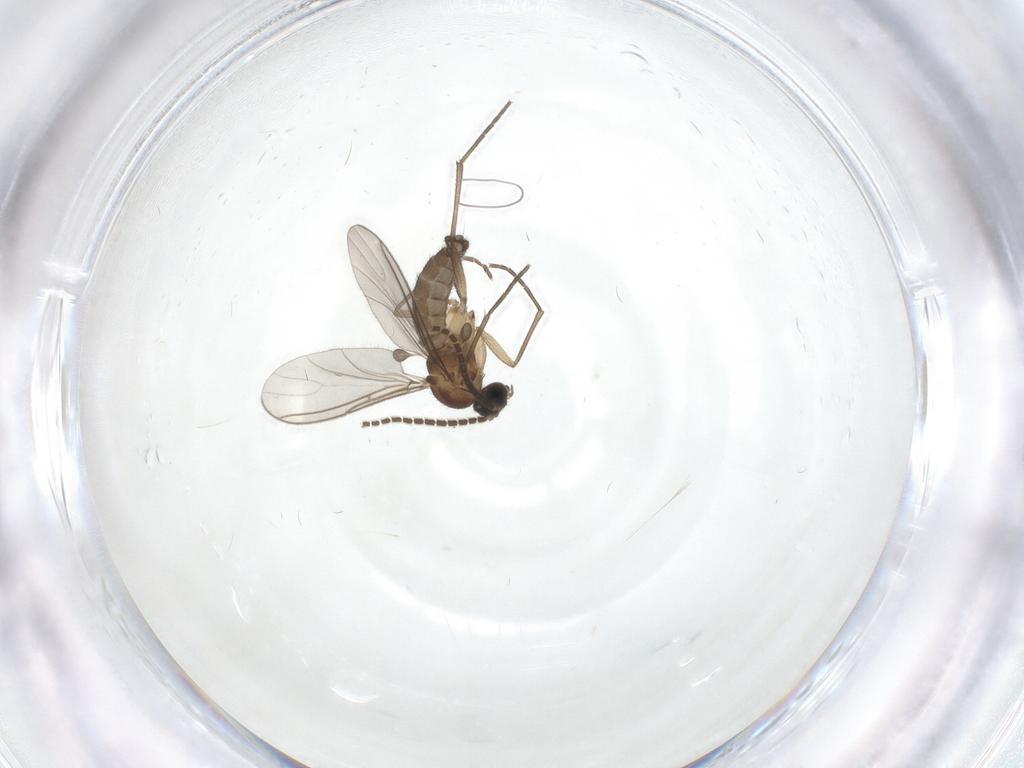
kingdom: Animalia
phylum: Arthropoda
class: Insecta
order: Diptera
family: Sciaridae
